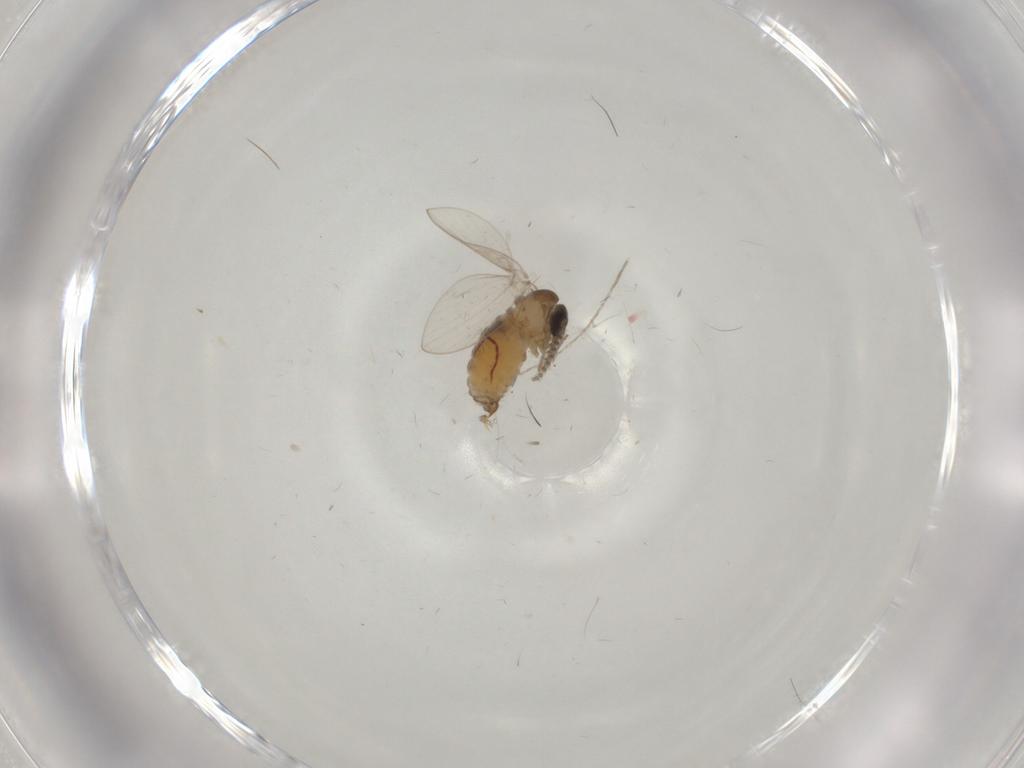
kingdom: Animalia
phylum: Arthropoda
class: Insecta
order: Diptera
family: Psychodidae
